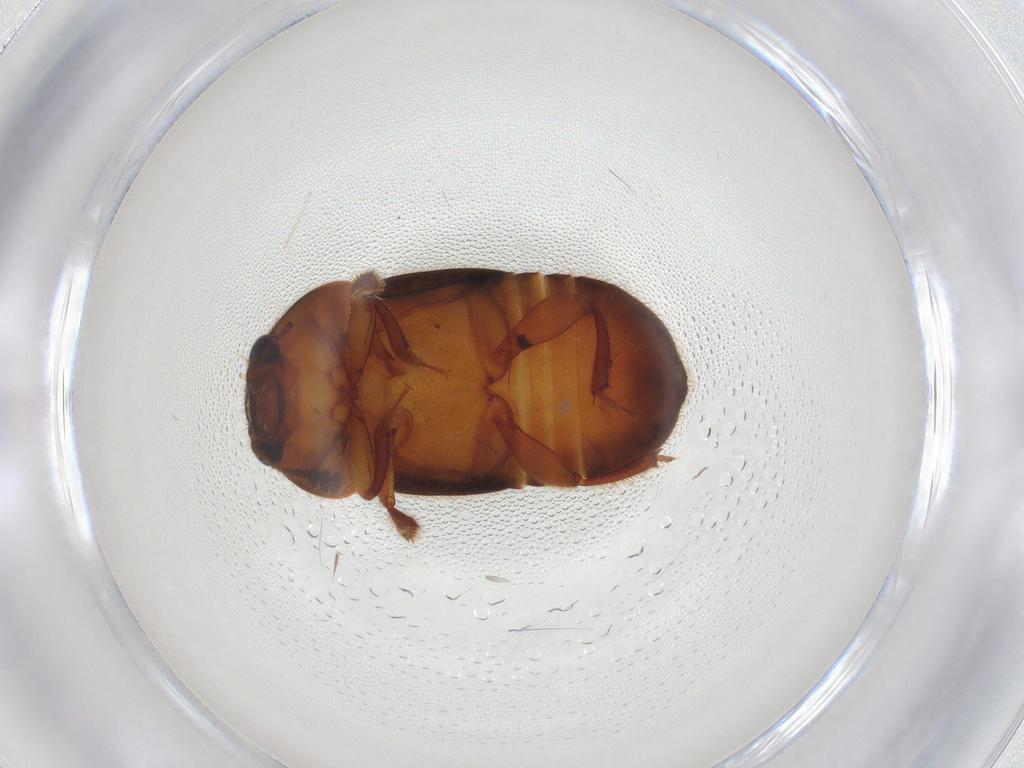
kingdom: Animalia
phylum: Arthropoda
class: Insecta
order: Coleoptera
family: Nitidulidae
